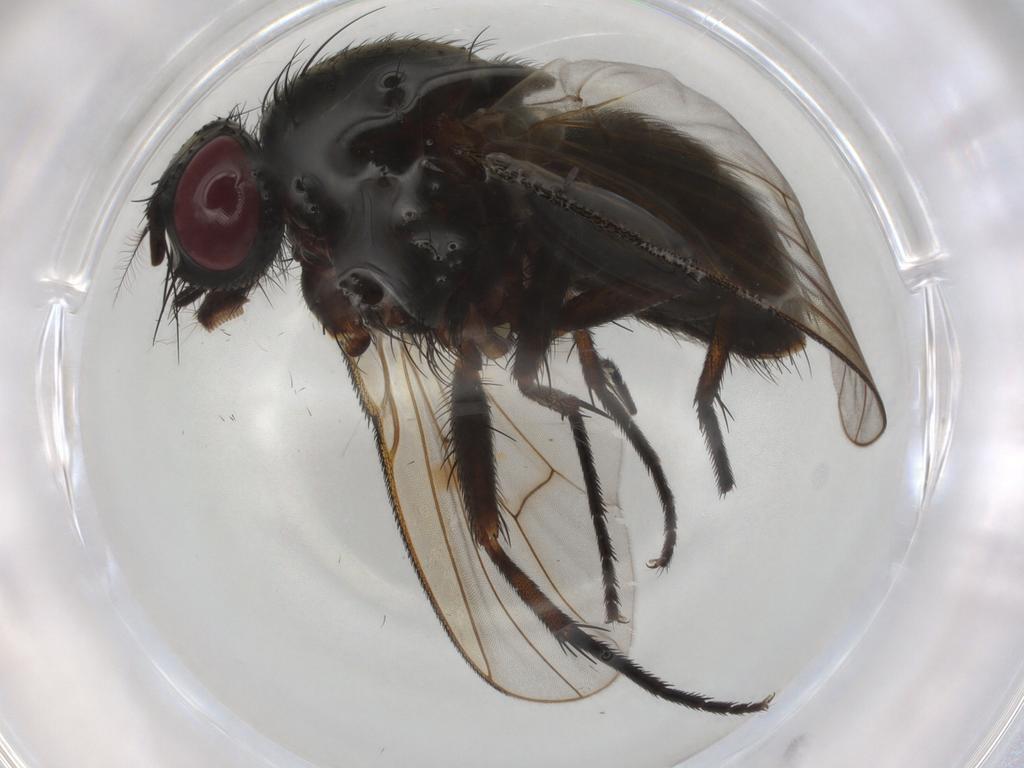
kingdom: Animalia
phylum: Arthropoda
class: Insecta
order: Diptera
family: Muscidae
